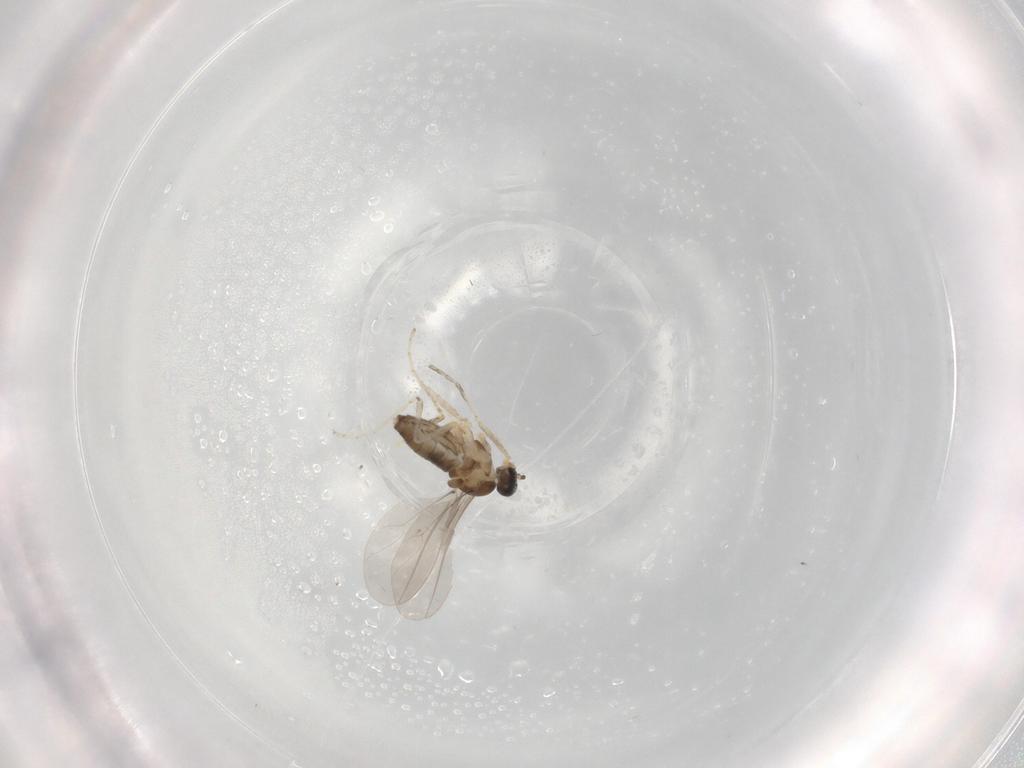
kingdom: Animalia
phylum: Arthropoda
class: Insecta
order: Diptera
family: Cecidomyiidae
